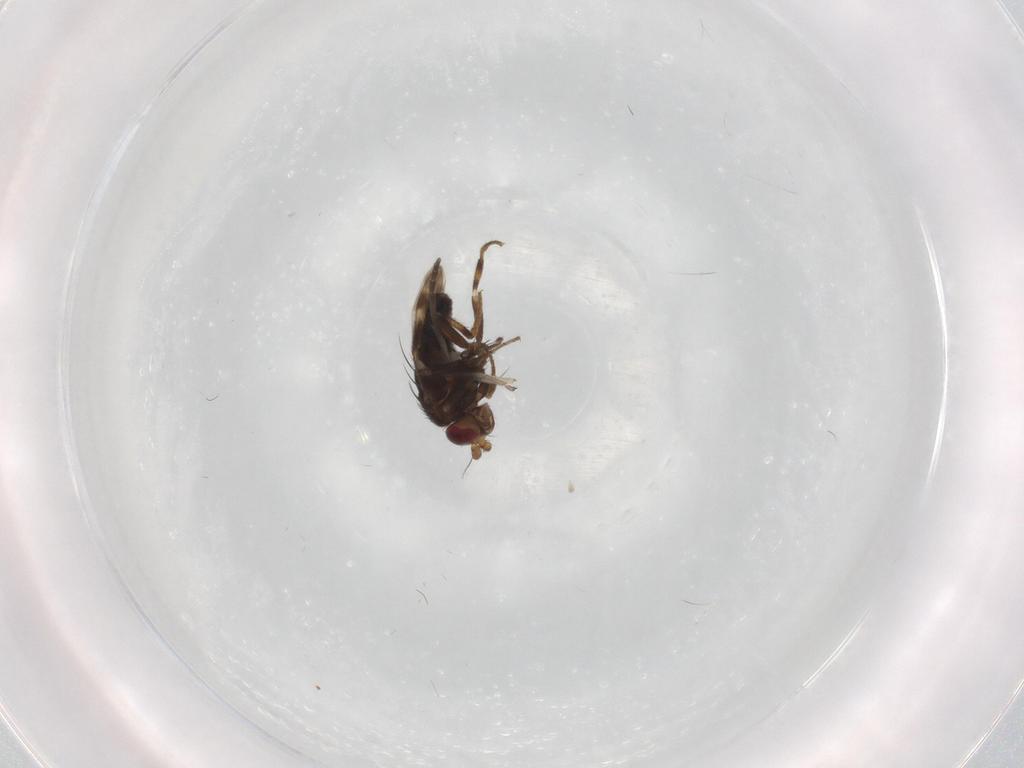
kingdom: Animalia
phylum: Arthropoda
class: Insecta
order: Diptera
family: Sphaeroceridae
